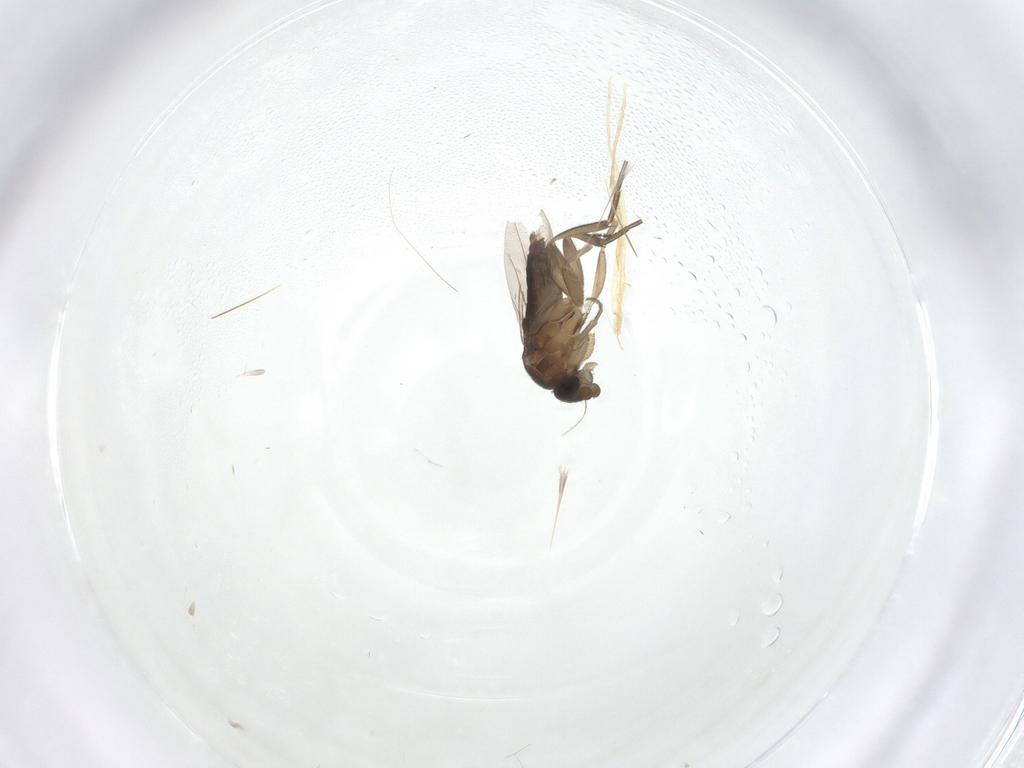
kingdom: Animalia
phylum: Arthropoda
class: Insecta
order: Diptera
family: Phoridae
